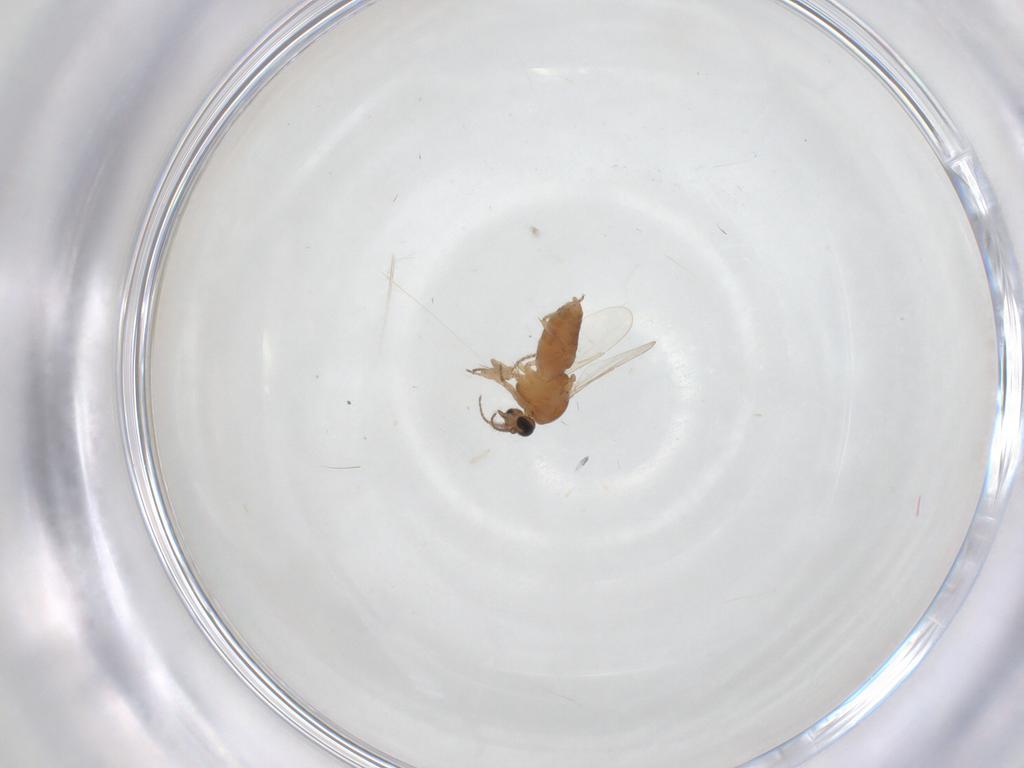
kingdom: Animalia
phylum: Arthropoda
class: Insecta
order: Diptera
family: Ceratopogonidae
